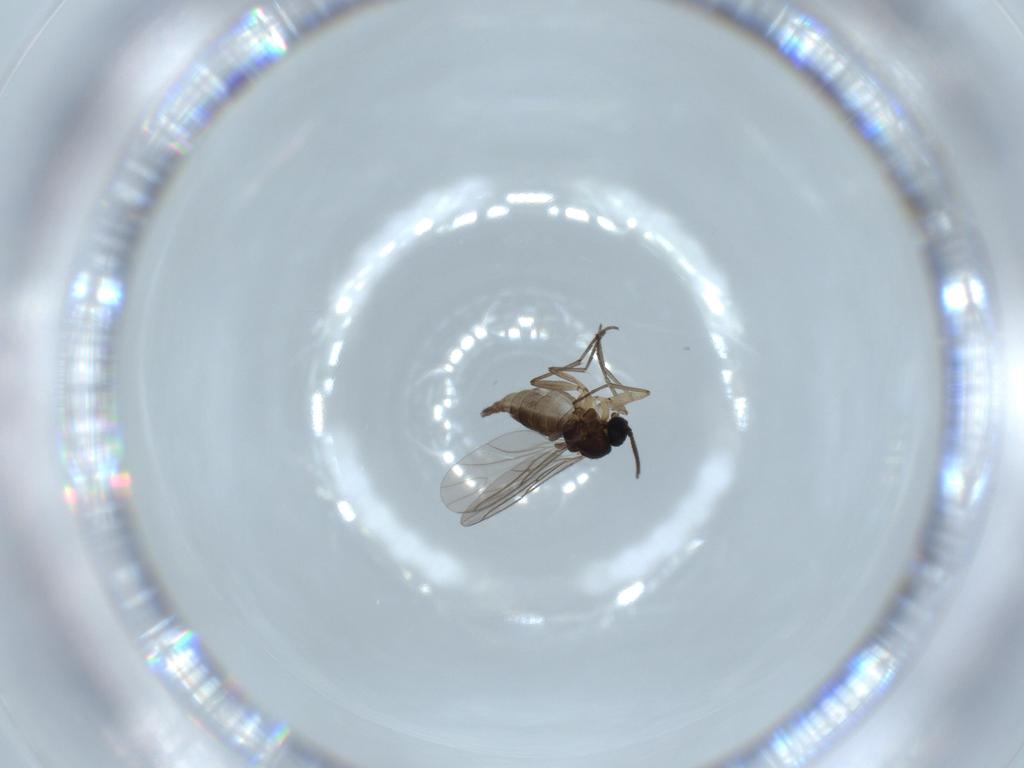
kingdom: Animalia
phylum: Arthropoda
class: Insecta
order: Diptera
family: Sciaridae
